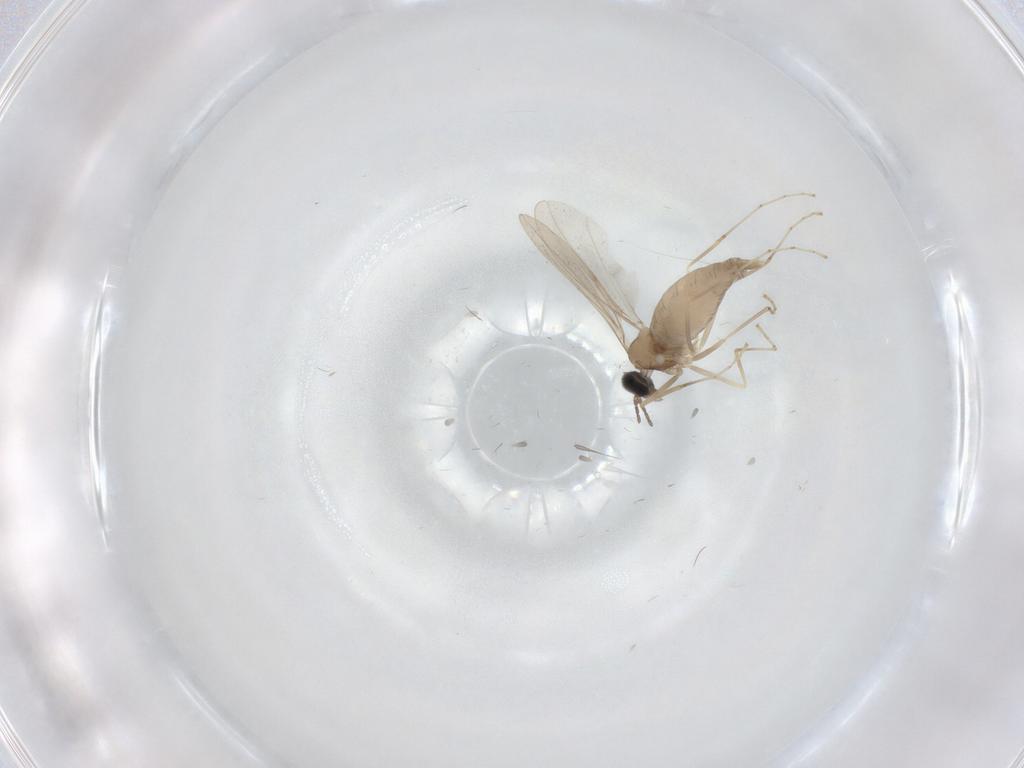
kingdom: Animalia
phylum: Arthropoda
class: Insecta
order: Diptera
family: Cecidomyiidae
